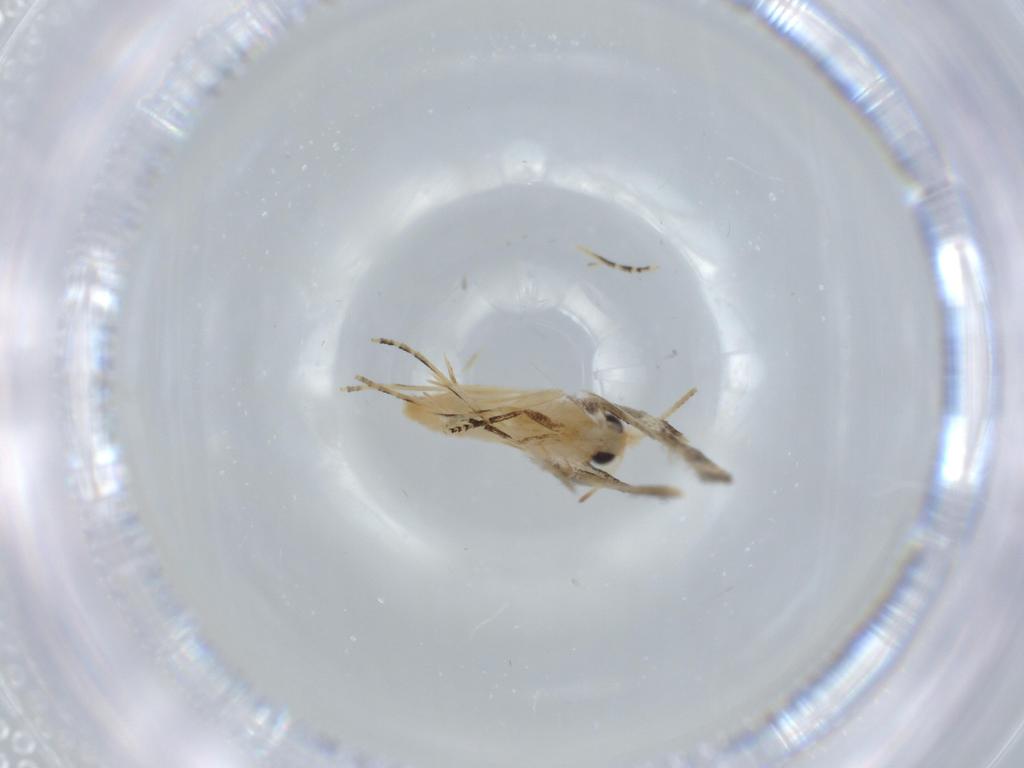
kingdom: Animalia
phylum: Arthropoda
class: Insecta
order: Lepidoptera
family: Bucculatricidae
